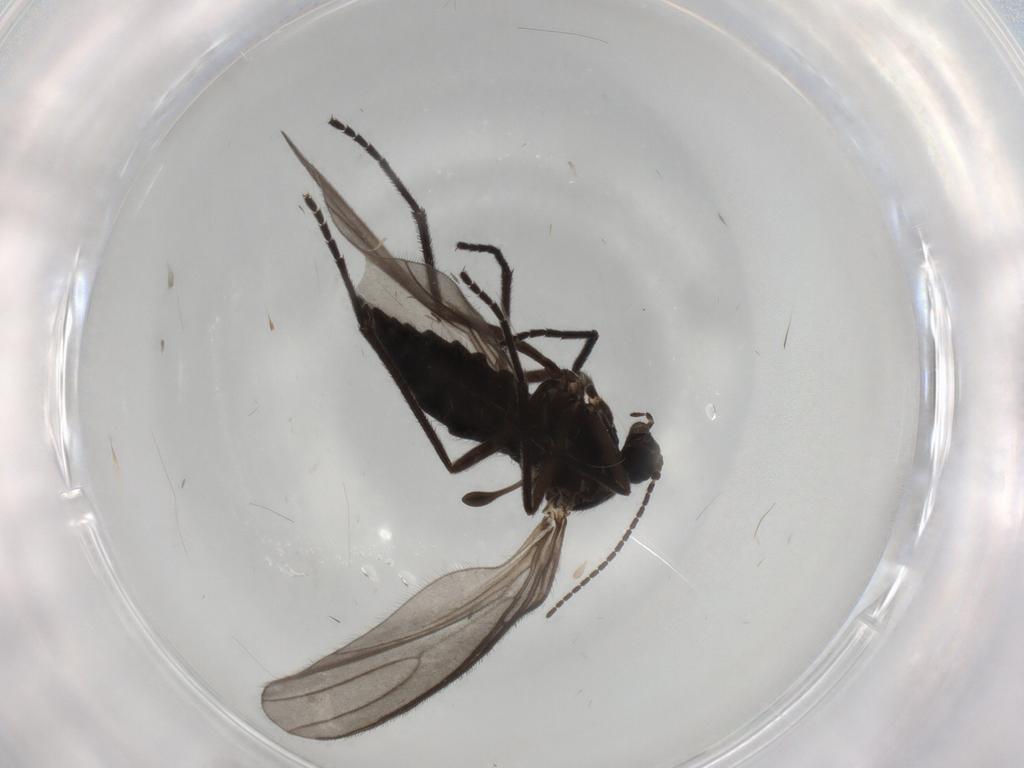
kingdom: Animalia
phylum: Arthropoda
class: Insecta
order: Diptera
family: Sciaridae
